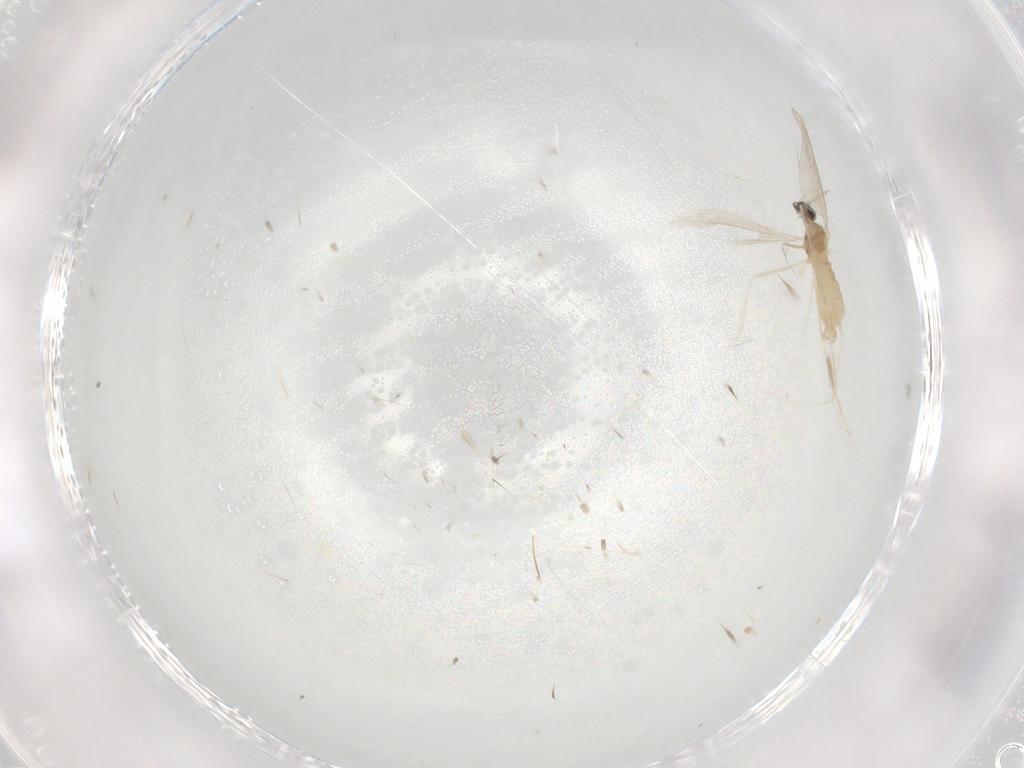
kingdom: Animalia
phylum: Arthropoda
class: Insecta
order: Diptera
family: Cecidomyiidae
